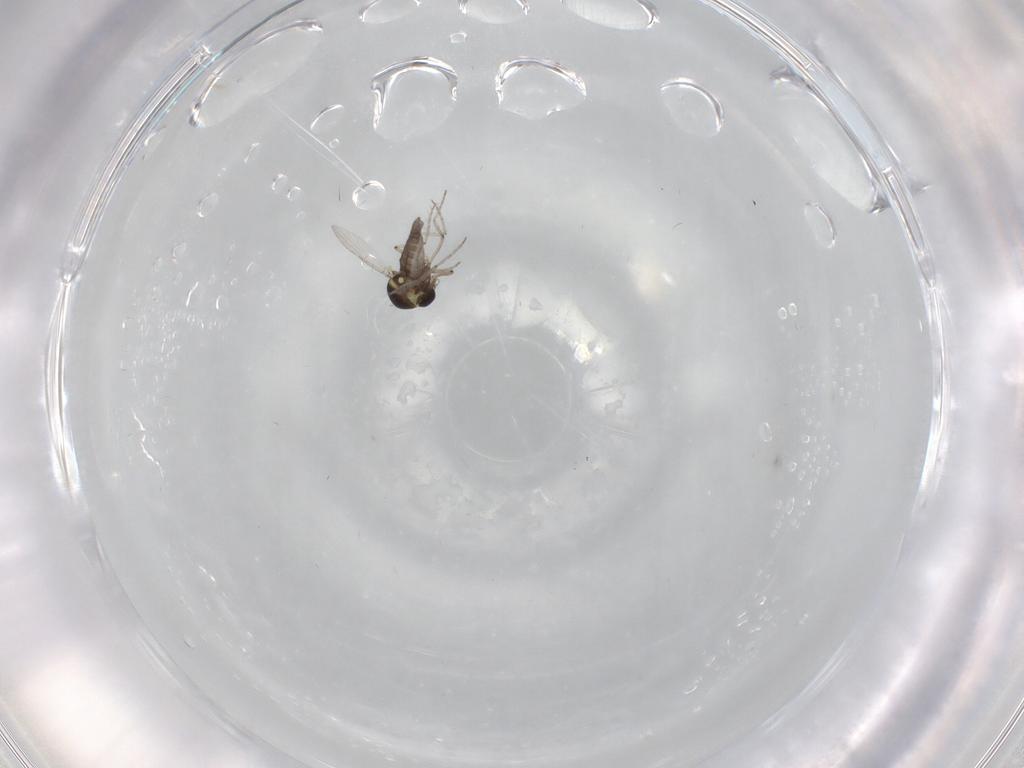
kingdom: Animalia
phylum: Arthropoda
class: Insecta
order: Diptera
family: Ceratopogonidae
